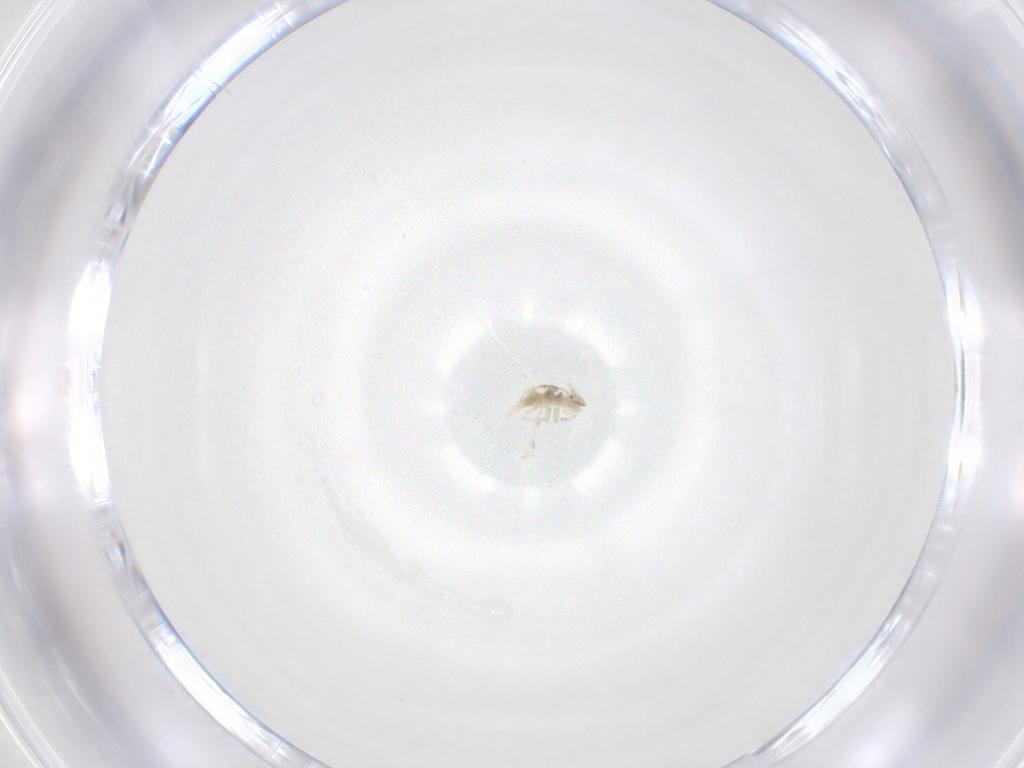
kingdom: Animalia
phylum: Arthropoda
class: Insecta
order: Neuroptera
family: Coniopterygidae
